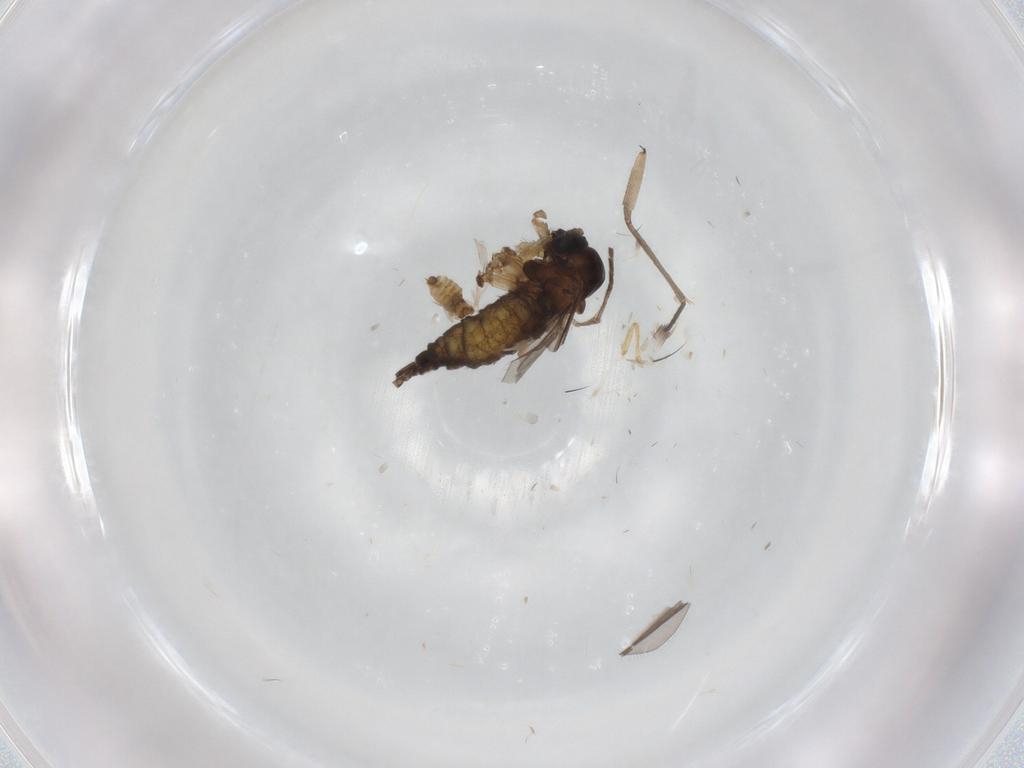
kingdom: Animalia
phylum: Arthropoda
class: Insecta
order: Diptera
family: Sciaridae
